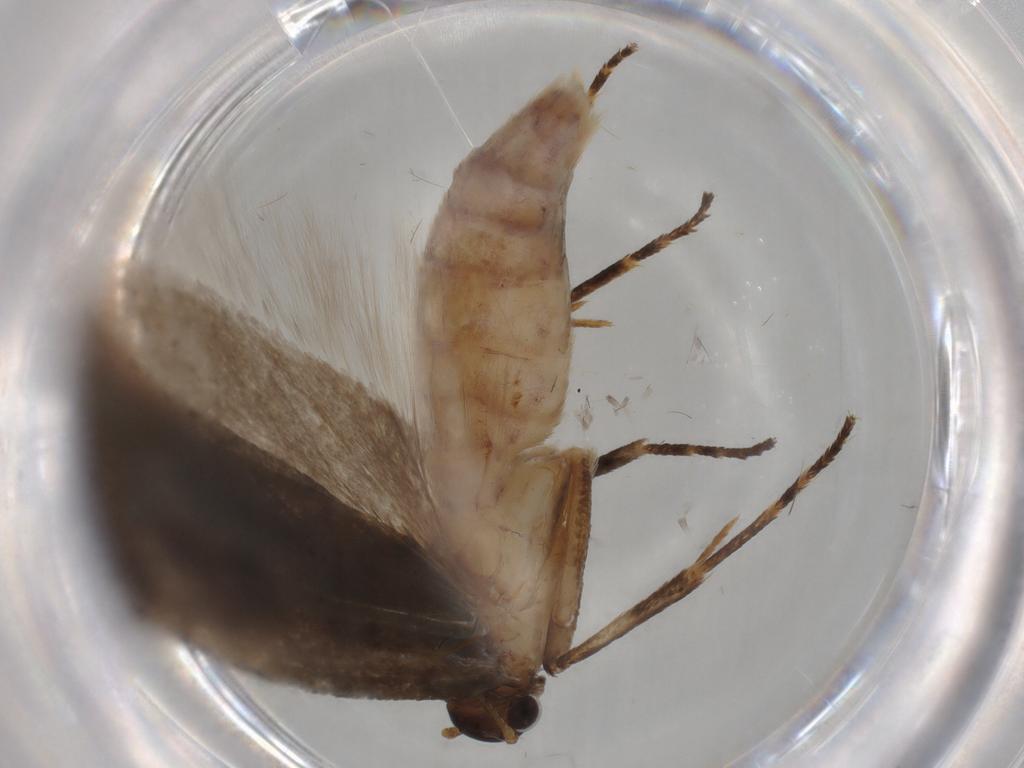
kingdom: Animalia
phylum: Arthropoda
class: Insecta
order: Lepidoptera
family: Gelechiidae
